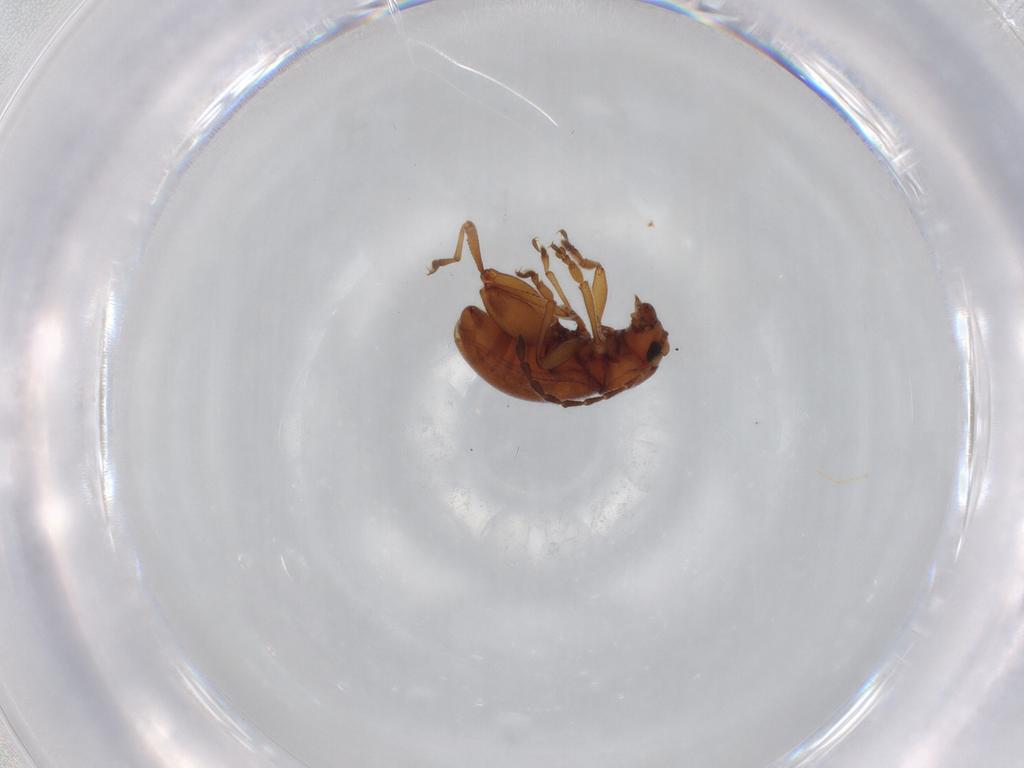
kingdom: Animalia
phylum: Arthropoda
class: Insecta
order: Coleoptera
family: Chrysomelidae
